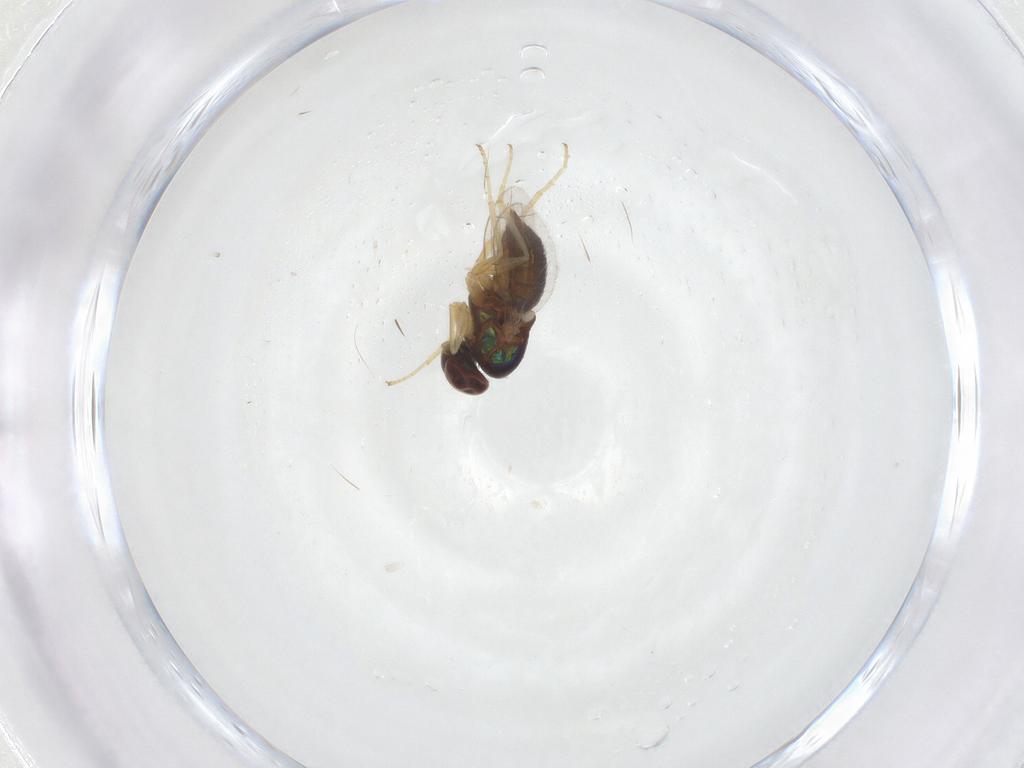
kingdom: Animalia
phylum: Arthropoda
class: Insecta
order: Diptera
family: Dolichopodidae
